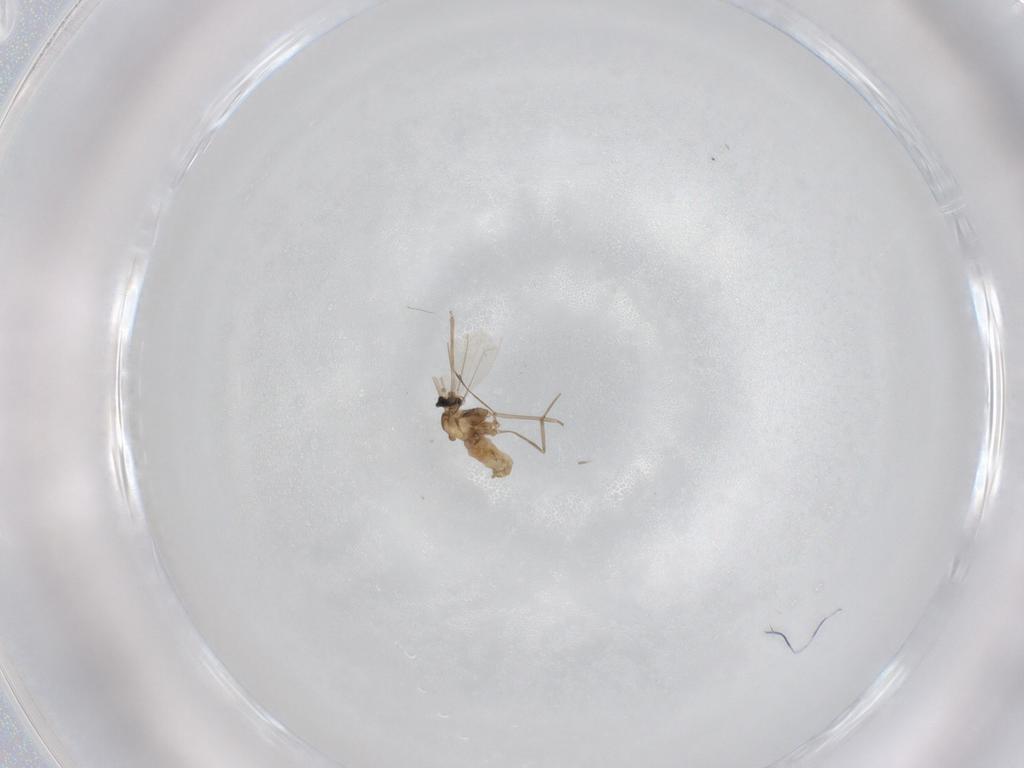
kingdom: Animalia
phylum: Arthropoda
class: Insecta
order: Diptera
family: Cecidomyiidae
